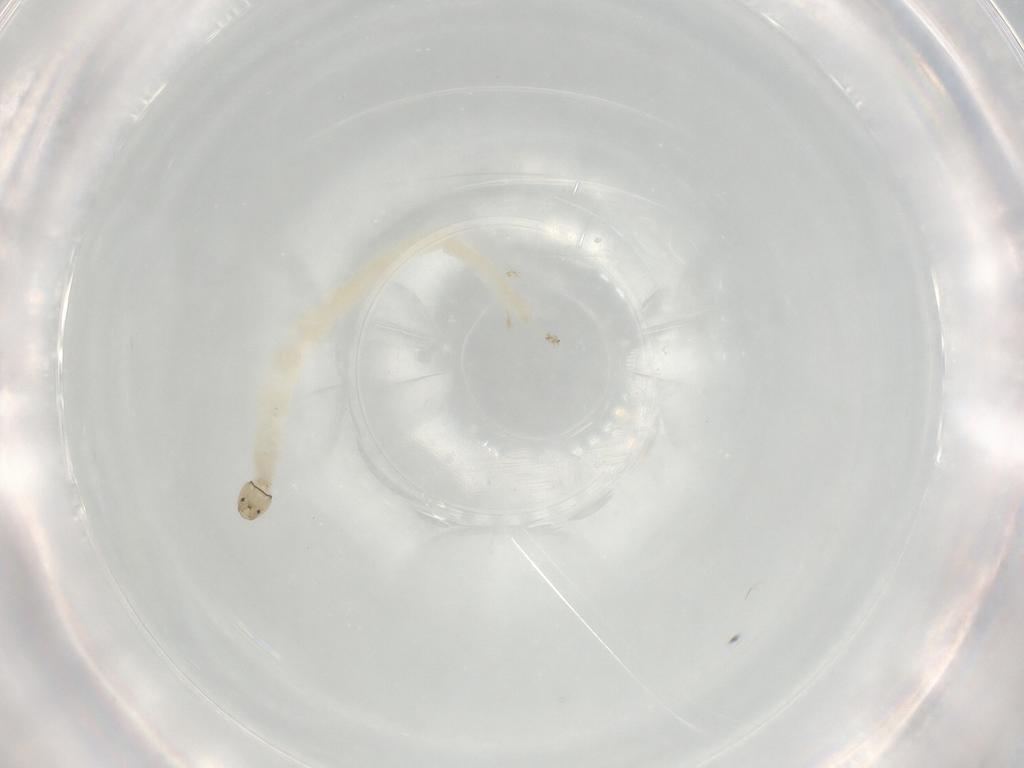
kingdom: Animalia
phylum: Arthropoda
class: Insecta
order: Diptera
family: Chironomidae
